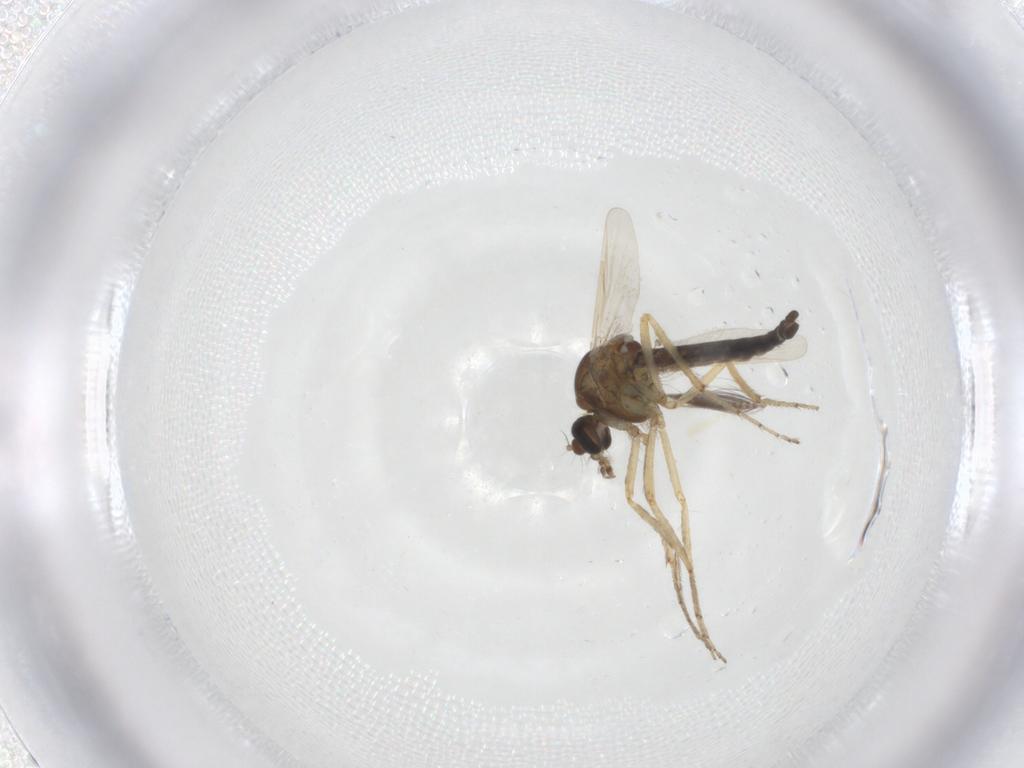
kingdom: Animalia
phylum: Arthropoda
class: Insecta
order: Diptera
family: Ceratopogonidae
